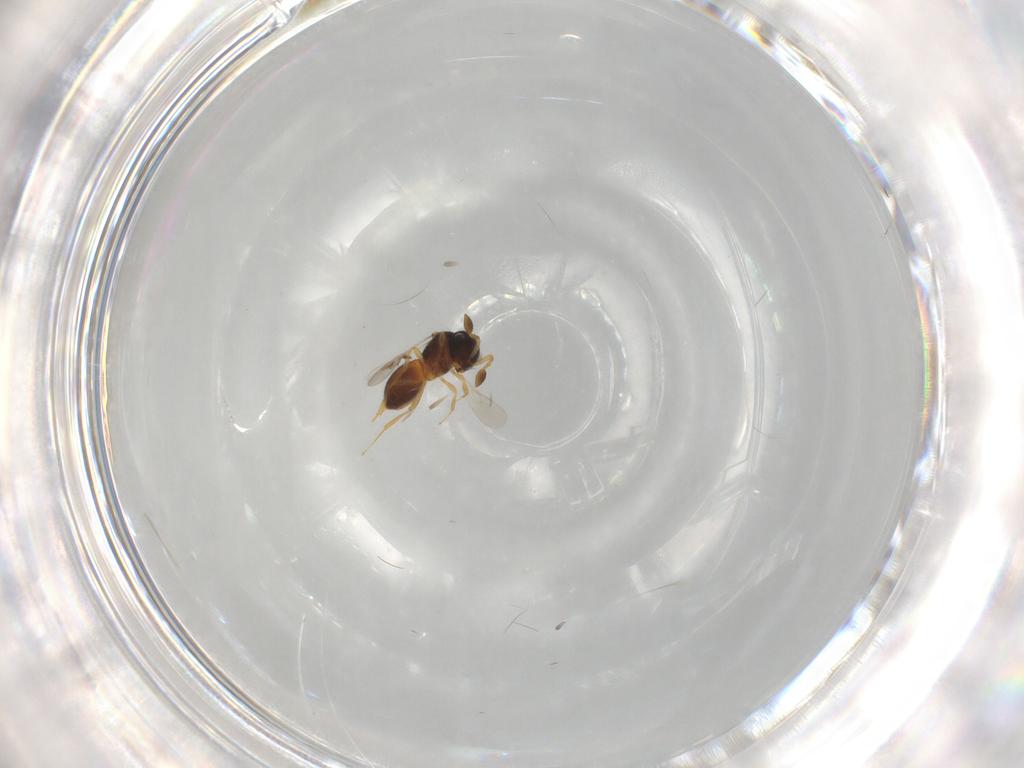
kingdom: Animalia
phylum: Arthropoda
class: Insecta
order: Hymenoptera
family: Scelionidae
